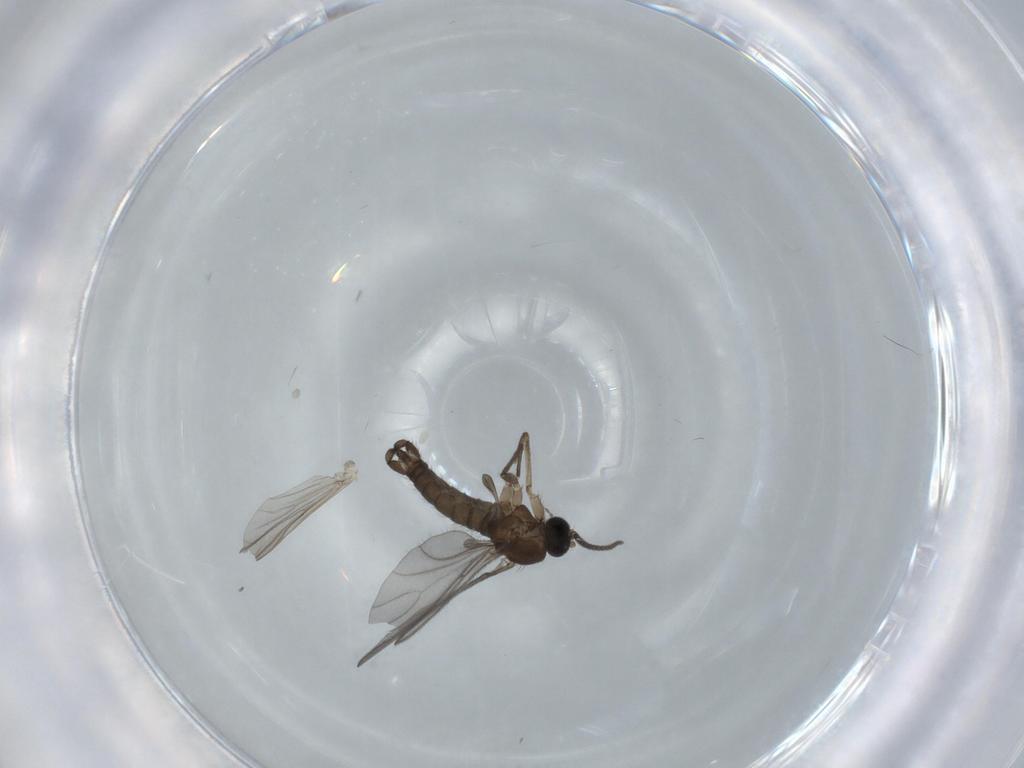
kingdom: Animalia
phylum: Arthropoda
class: Insecta
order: Diptera
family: Sciaridae
